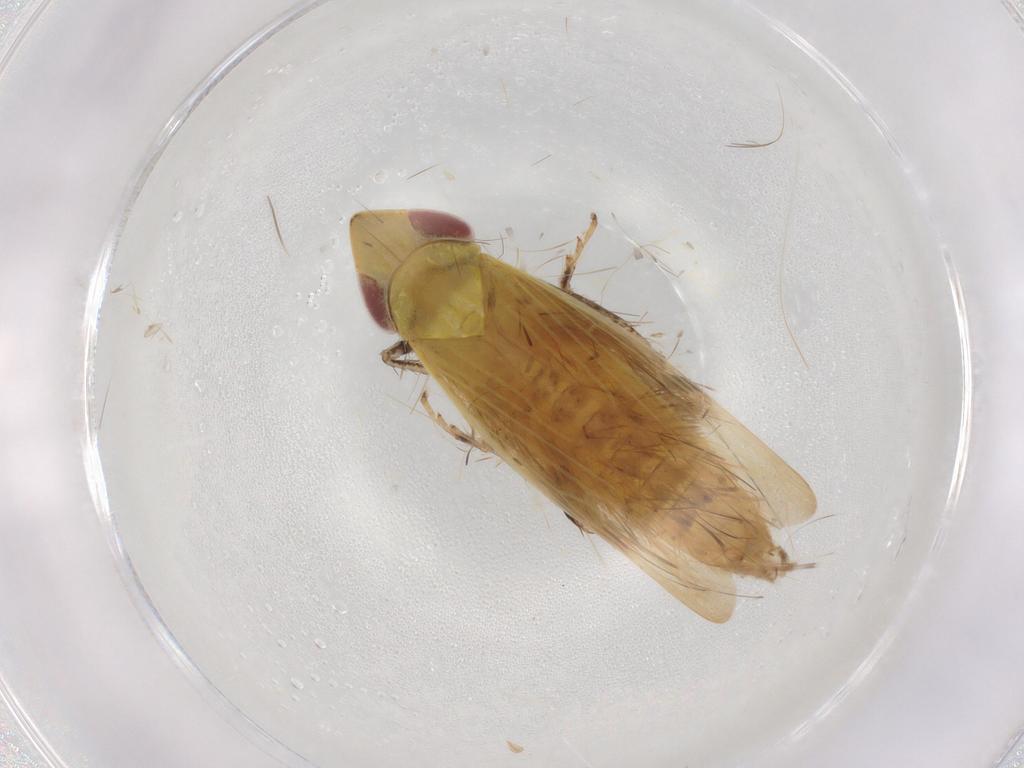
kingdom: Animalia
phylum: Arthropoda
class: Insecta
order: Hemiptera
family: Cicadellidae
